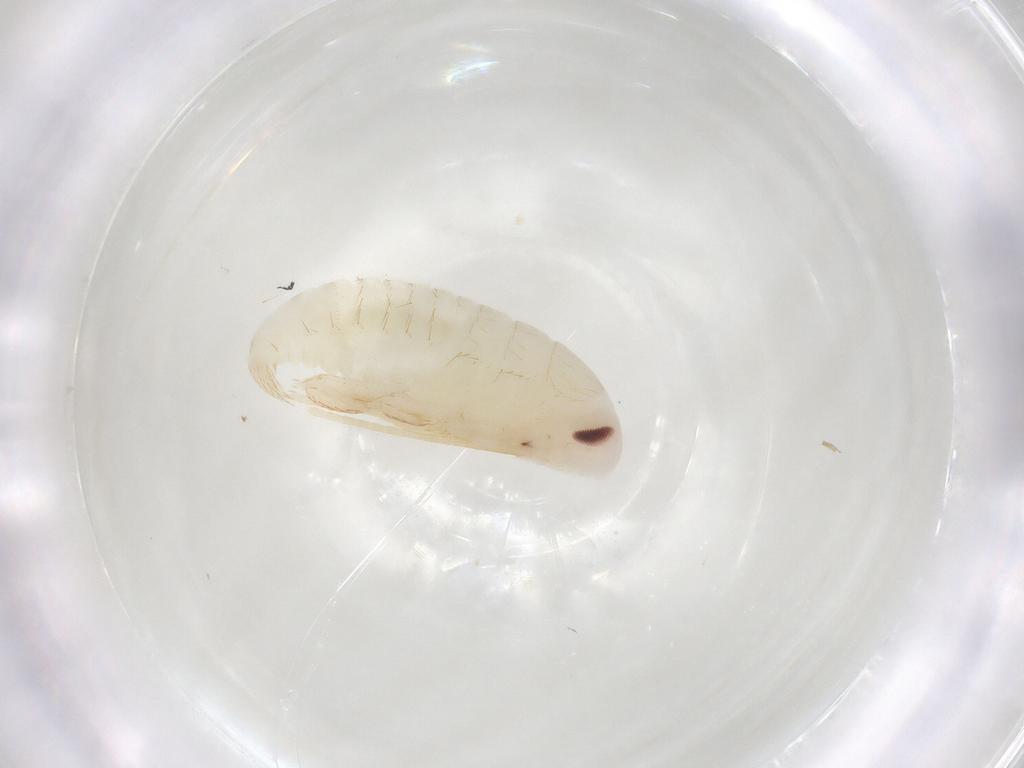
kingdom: Animalia
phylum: Arthropoda
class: Insecta
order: Blattodea
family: Ectobiidae
